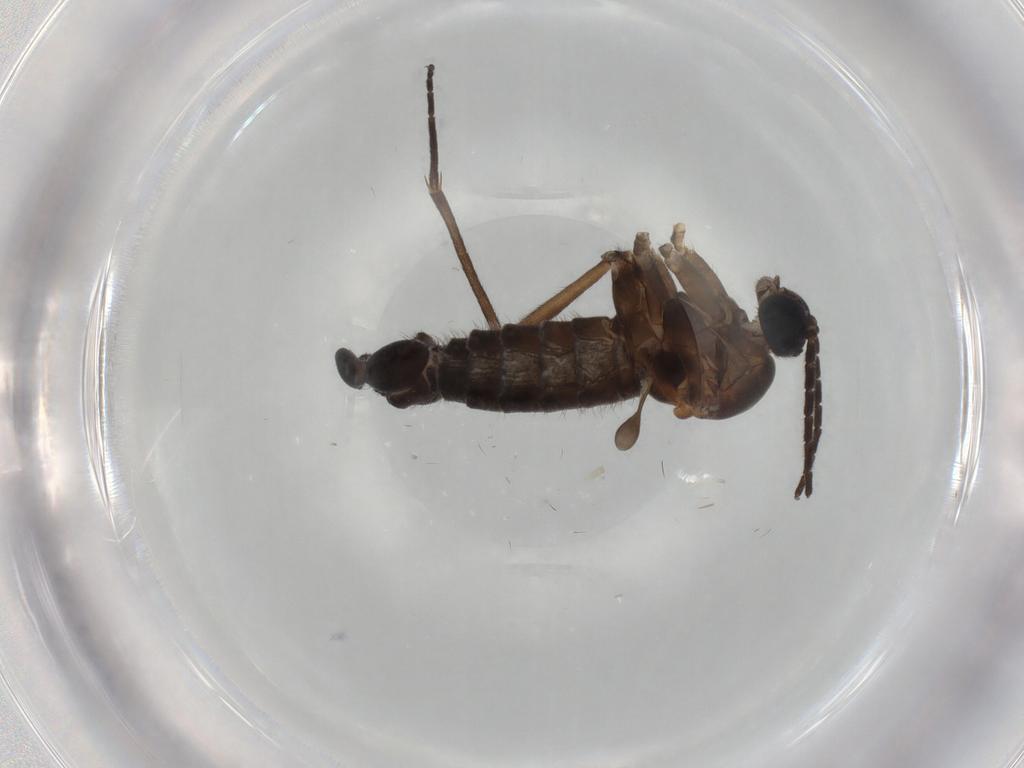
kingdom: Animalia
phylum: Arthropoda
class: Insecta
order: Diptera
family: Sciaridae
